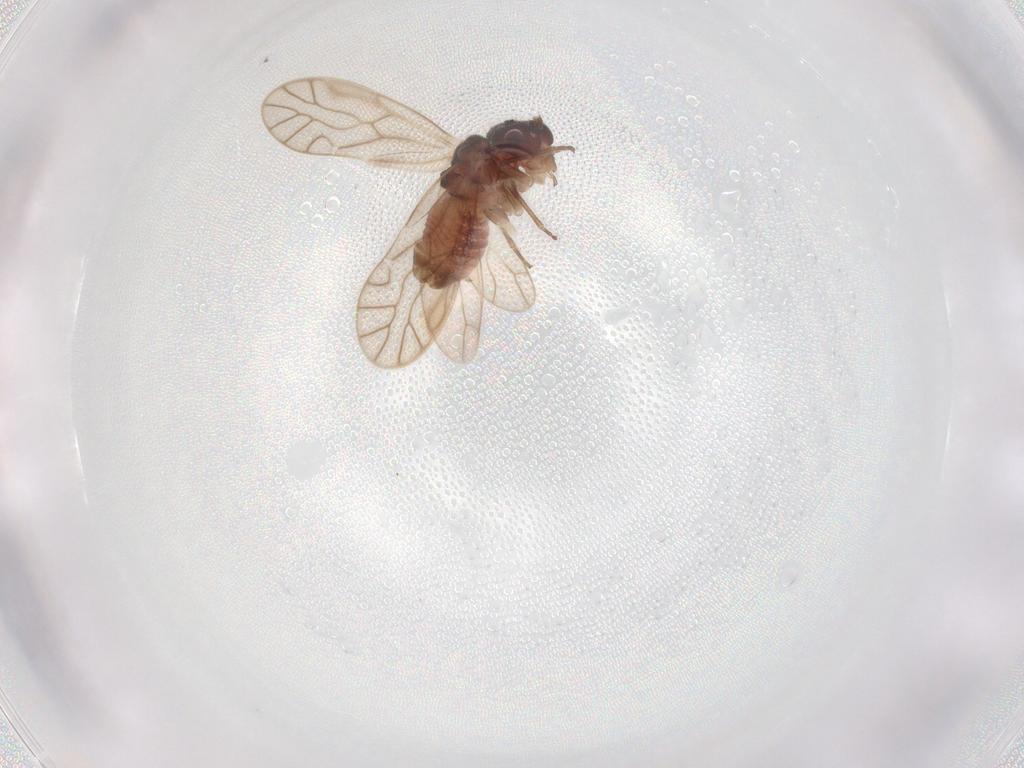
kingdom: Animalia
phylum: Arthropoda
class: Insecta
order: Psocodea
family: Amphipsocidae
